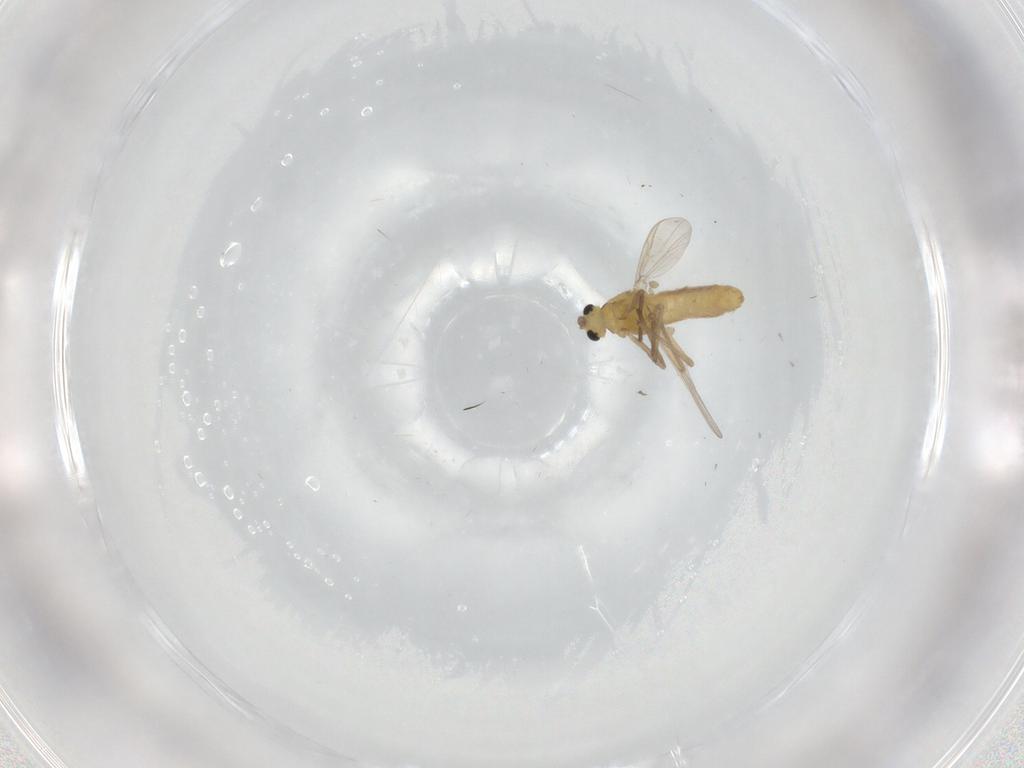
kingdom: Animalia
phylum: Arthropoda
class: Insecta
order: Diptera
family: Chironomidae
